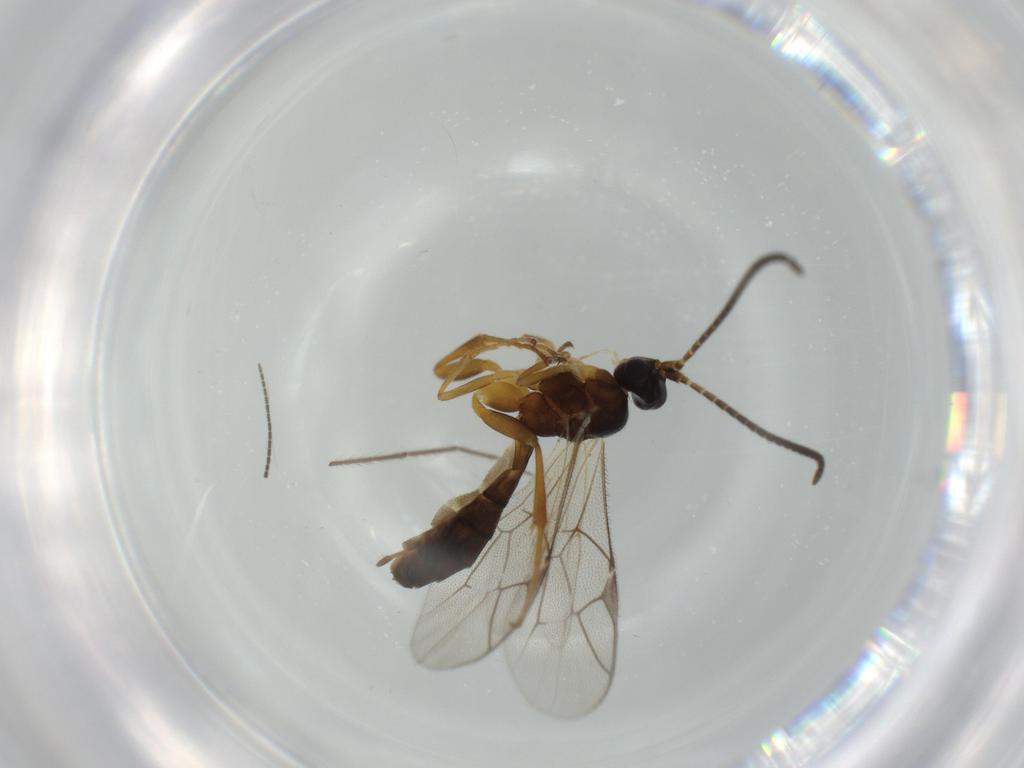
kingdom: Animalia
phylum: Arthropoda
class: Insecta
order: Hymenoptera
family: Ichneumonidae
